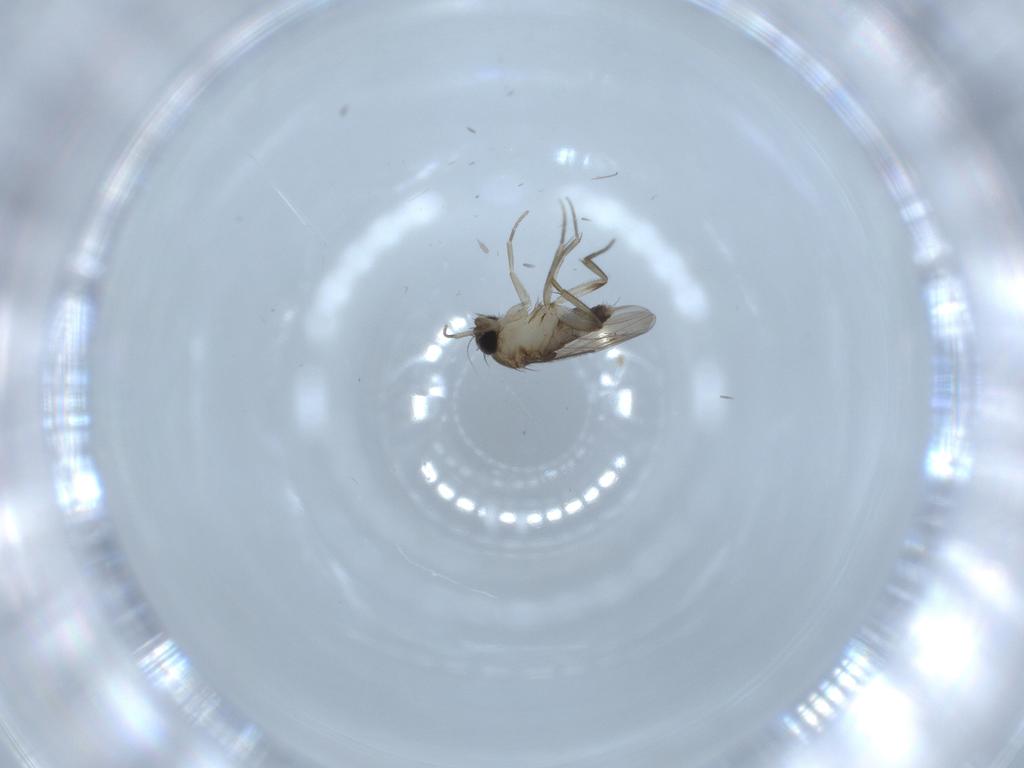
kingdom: Animalia
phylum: Arthropoda
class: Insecta
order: Diptera
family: Phoridae
